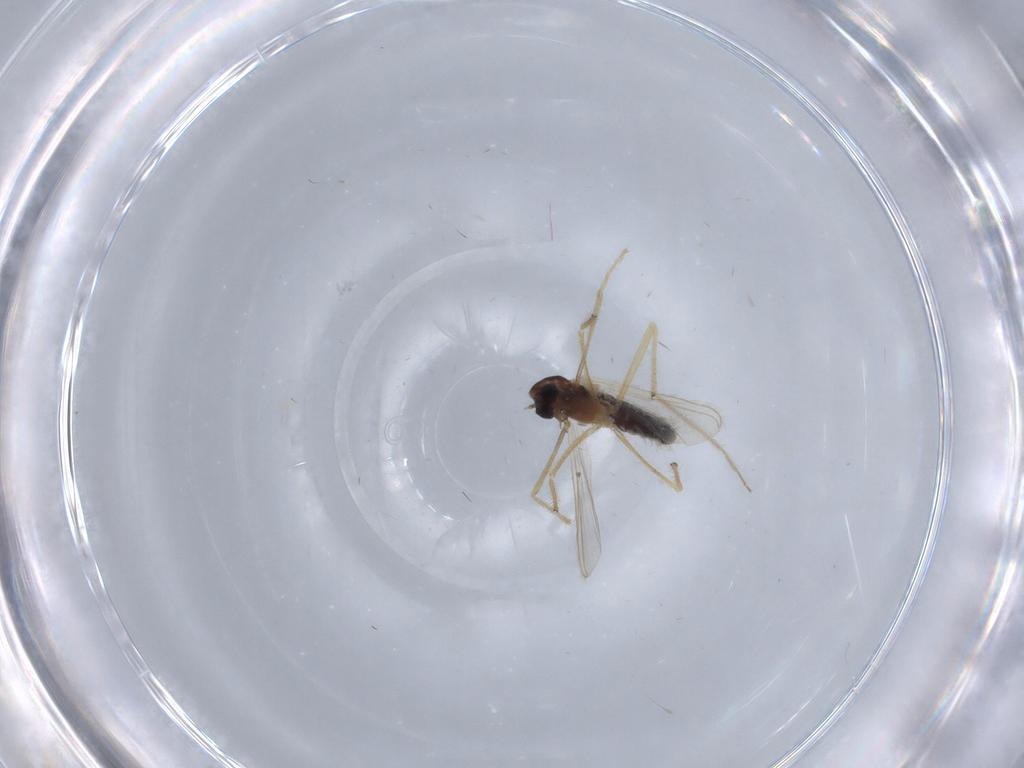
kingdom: Animalia
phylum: Arthropoda
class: Insecta
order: Diptera
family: Chironomidae
